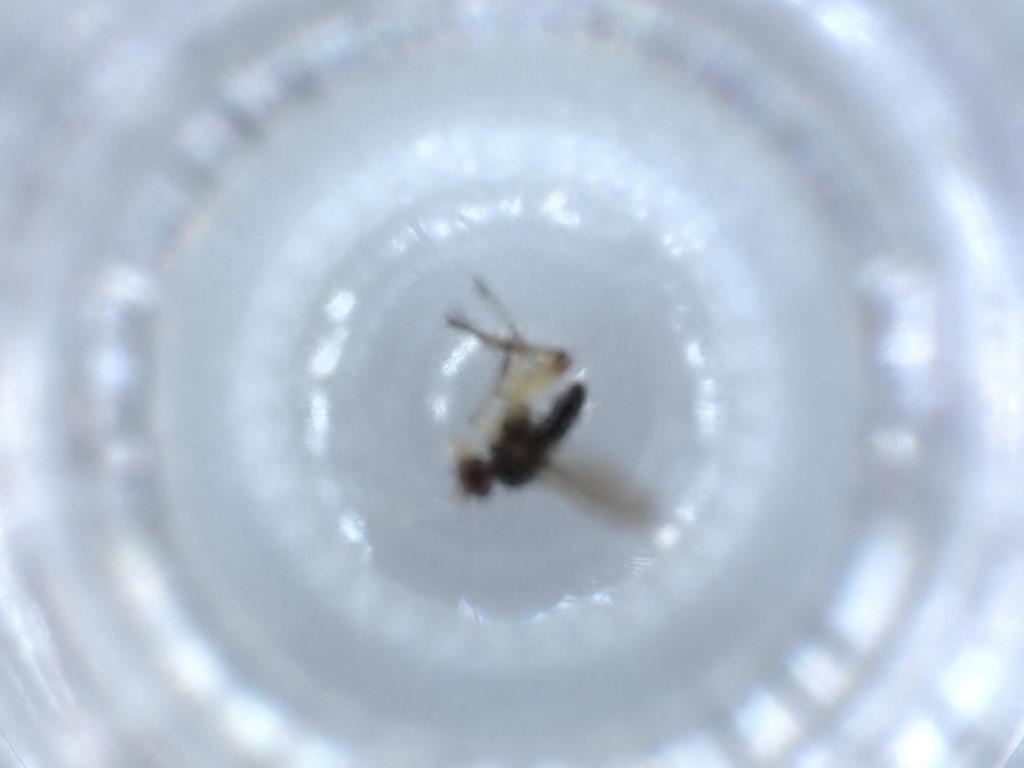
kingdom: Animalia
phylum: Arthropoda
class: Insecta
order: Diptera
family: Dolichopodidae
